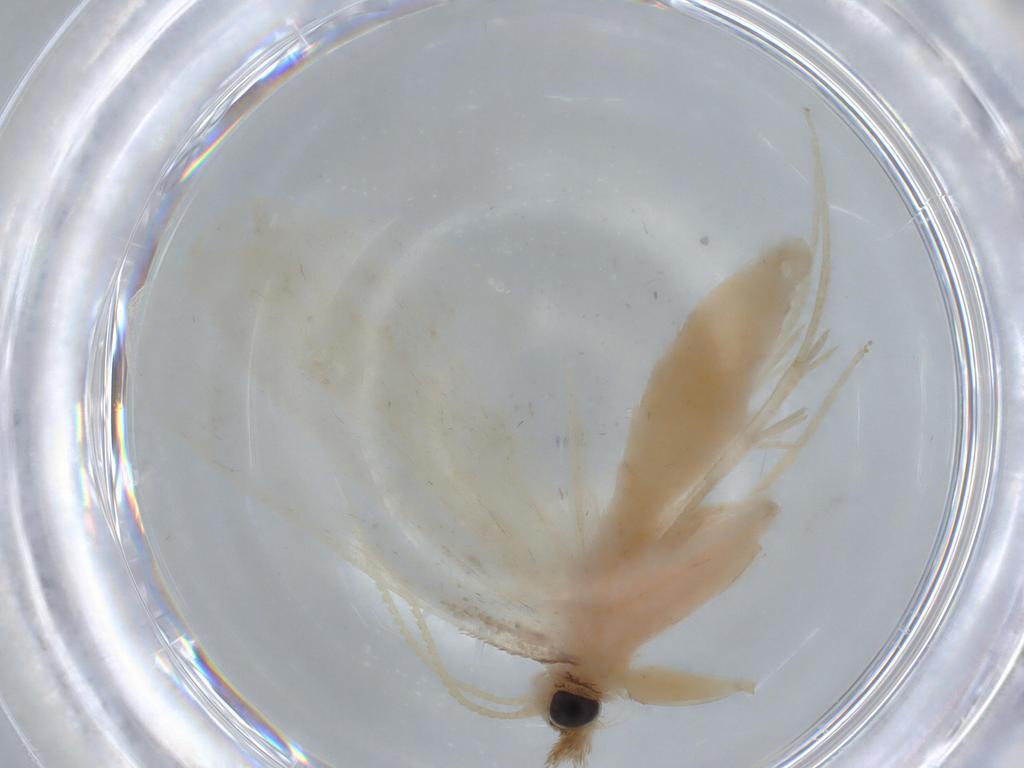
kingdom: Animalia
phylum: Arthropoda
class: Insecta
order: Lepidoptera
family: Crambidae
